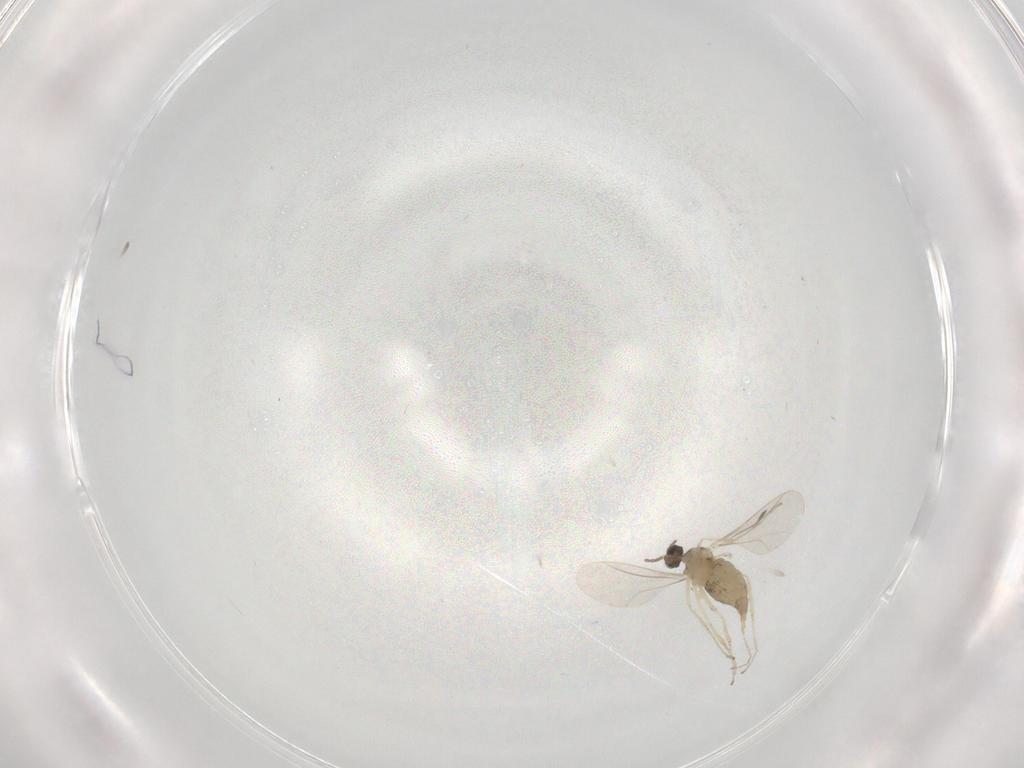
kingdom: Animalia
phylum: Arthropoda
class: Insecta
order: Diptera
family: Cecidomyiidae
